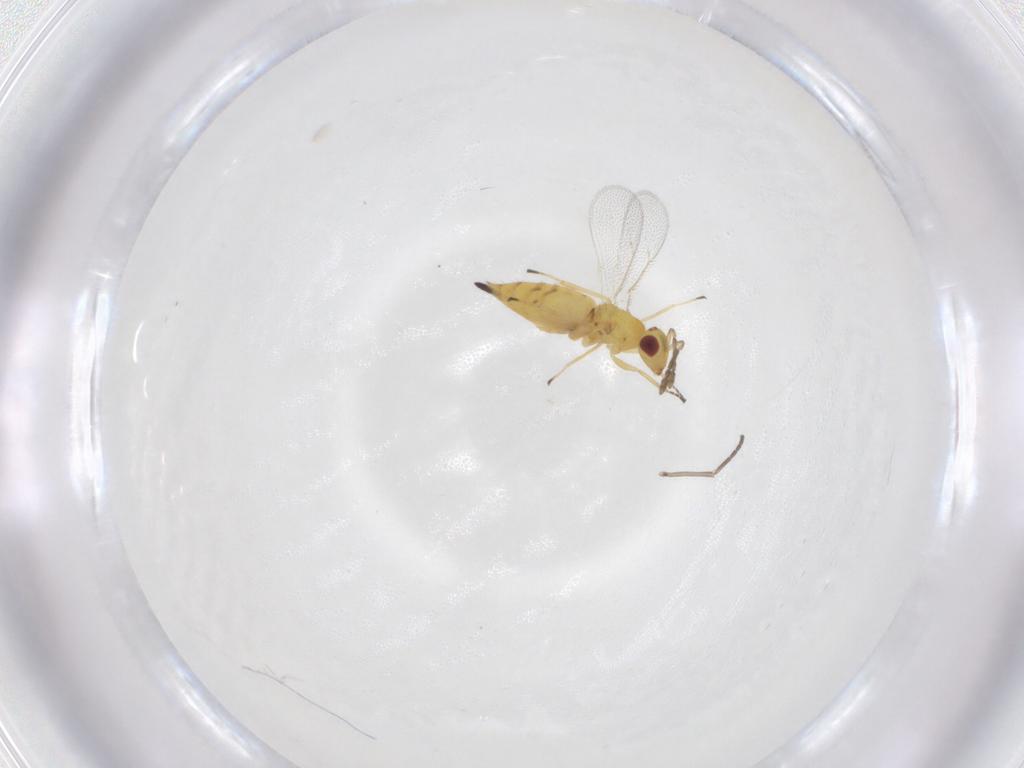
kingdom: Animalia
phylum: Arthropoda
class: Insecta
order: Hymenoptera
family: Eulophidae
